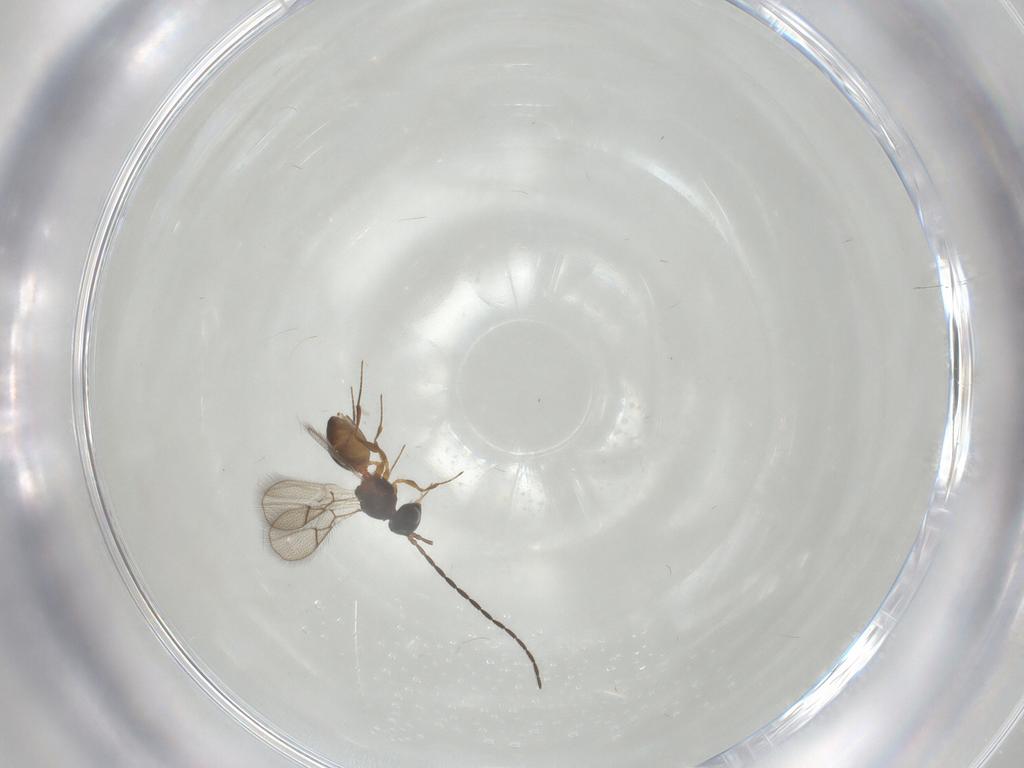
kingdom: Animalia
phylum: Arthropoda
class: Insecta
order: Hymenoptera
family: Figitidae
